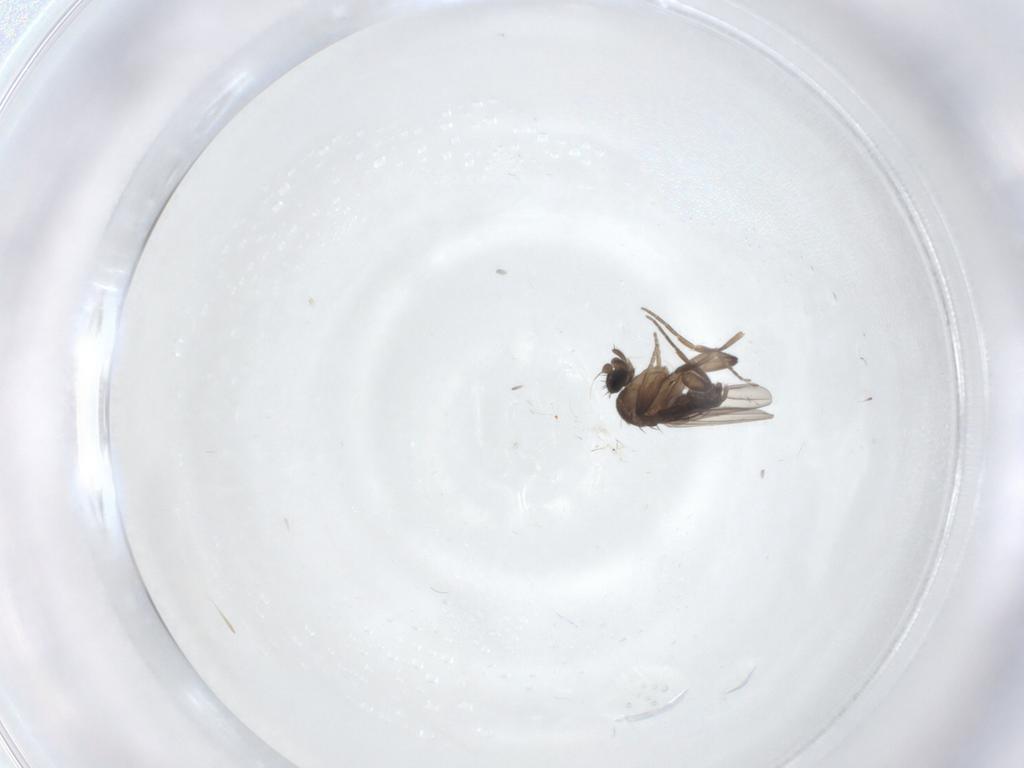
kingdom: Animalia
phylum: Arthropoda
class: Insecta
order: Diptera
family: Phoridae
